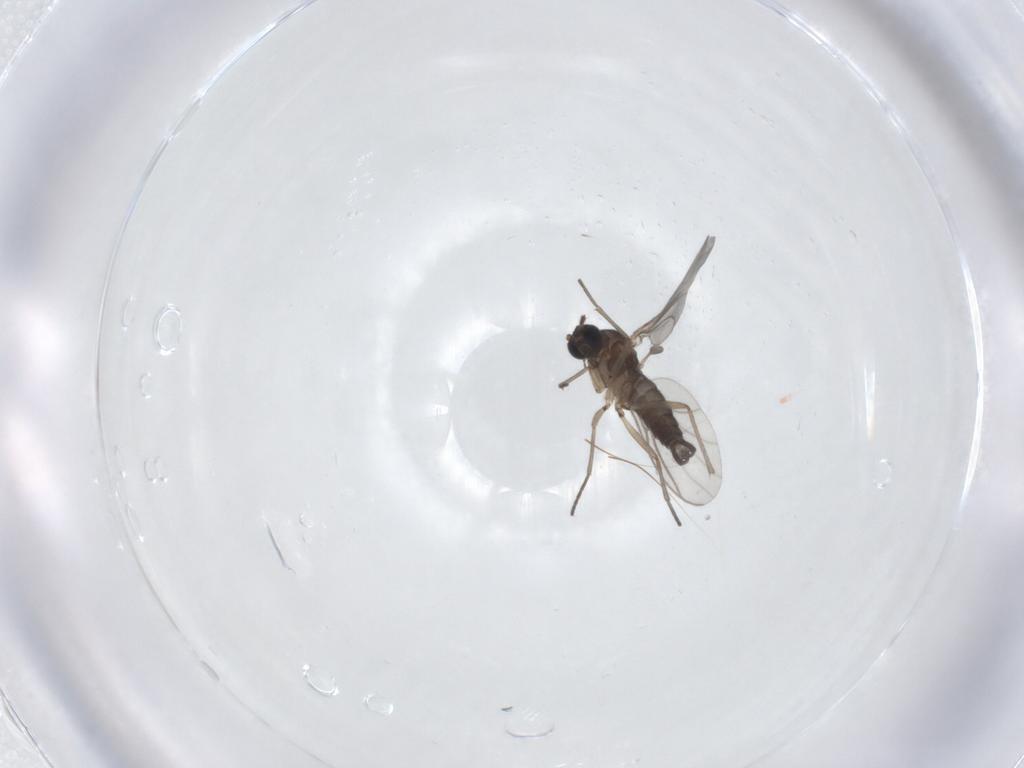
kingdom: Animalia
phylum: Arthropoda
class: Insecta
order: Diptera
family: Sciaridae
